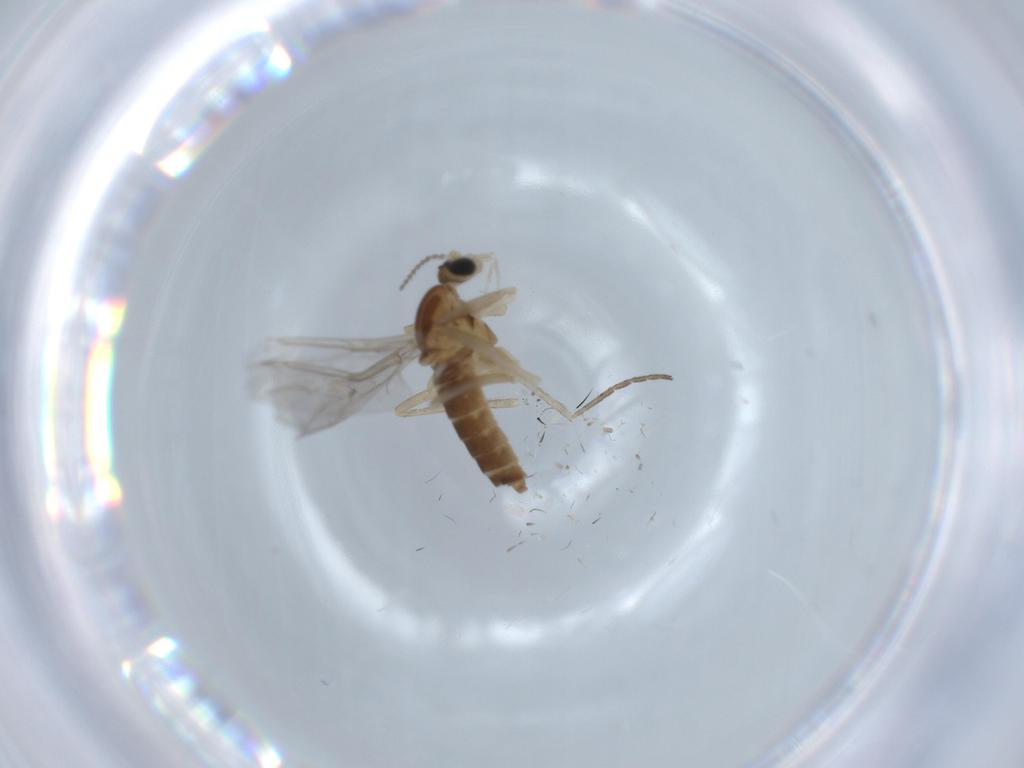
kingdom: Animalia
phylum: Arthropoda
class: Insecta
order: Diptera
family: Cecidomyiidae
